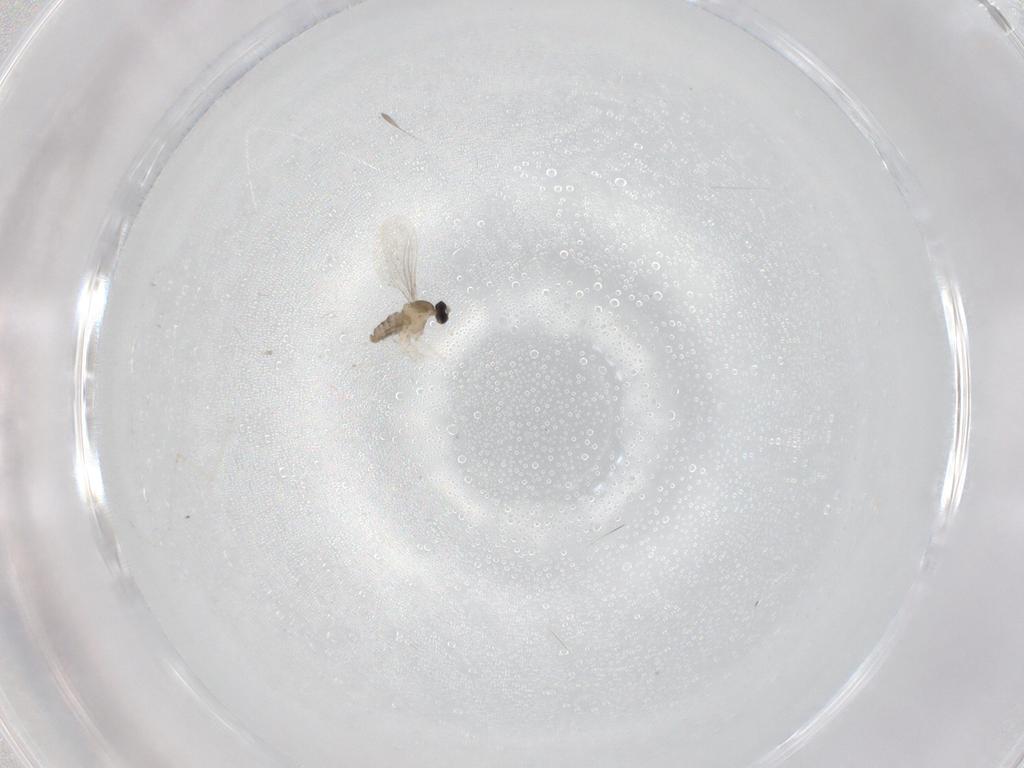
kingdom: Animalia
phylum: Arthropoda
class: Insecta
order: Diptera
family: Cecidomyiidae
